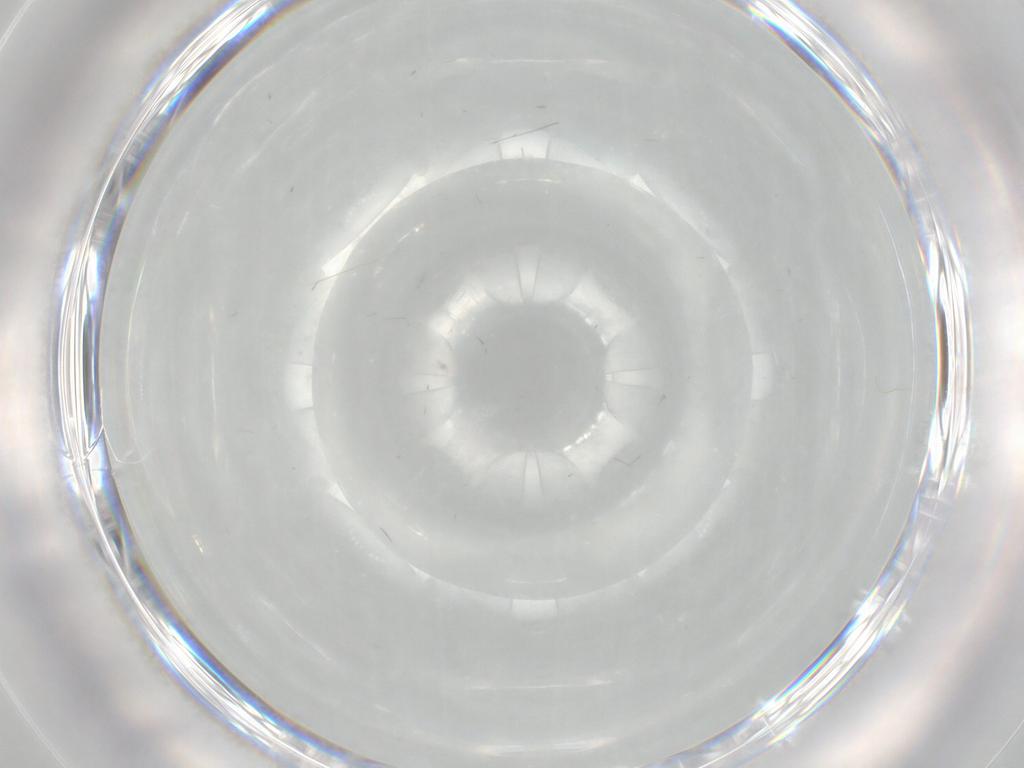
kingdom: Animalia
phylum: Arthropoda
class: Insecta
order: Diptera
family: Cecidomyiidae
